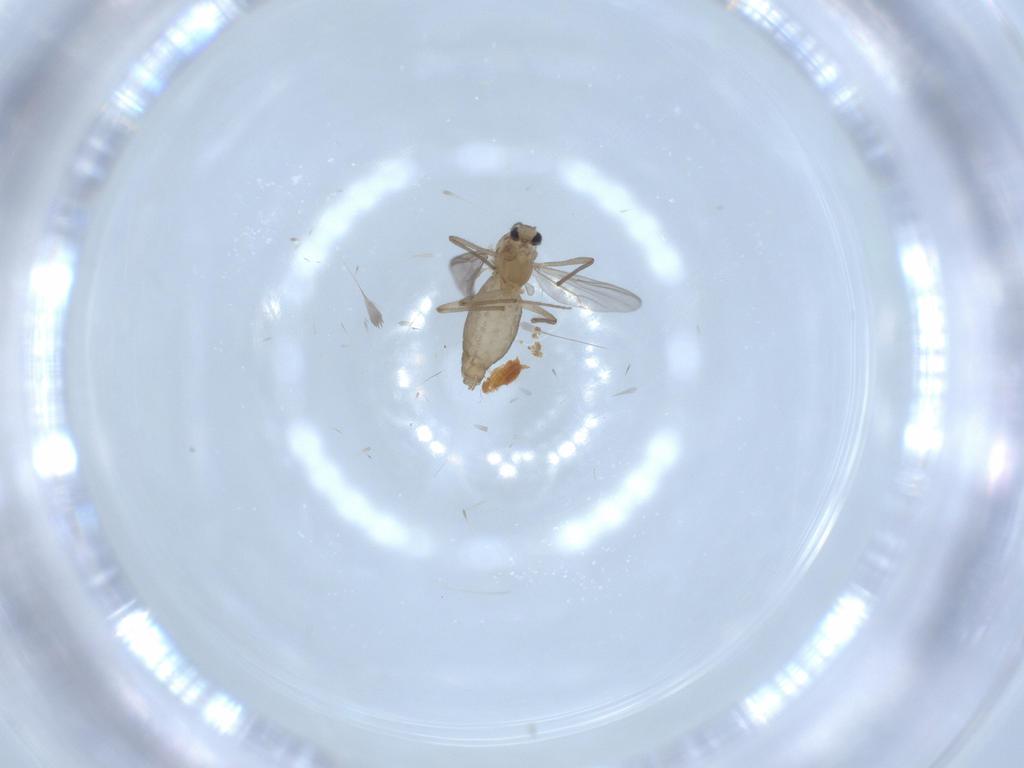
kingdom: Animalia
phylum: Arthropoda
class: Insecta
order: Diptera
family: Chironomidae
